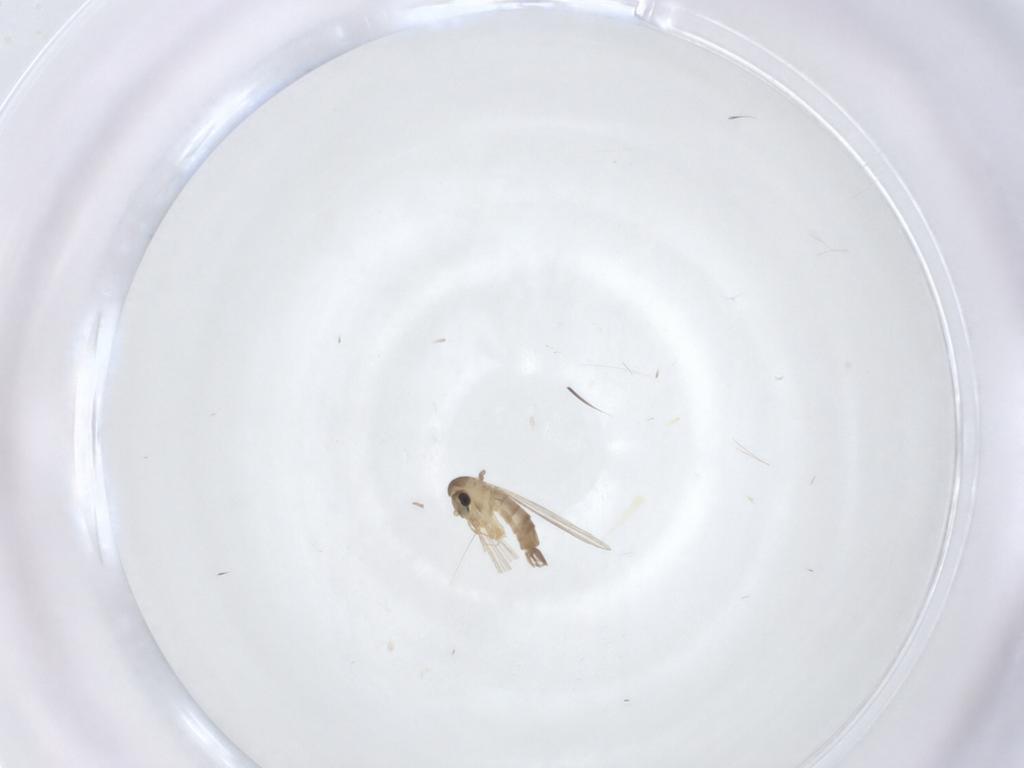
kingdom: Animalia
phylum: Arthropoda
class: Insecta
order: Diptera
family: Psychodidae
